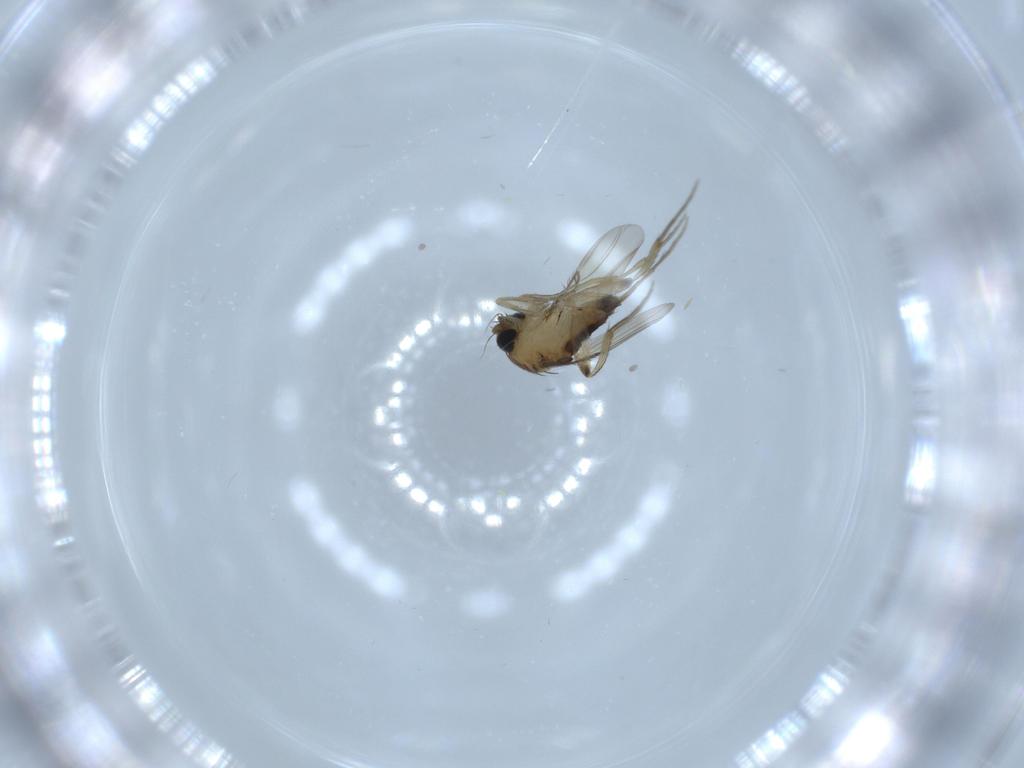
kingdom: Animalia
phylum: Arthropoda
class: Insecta
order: Diptera
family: Phoridae
